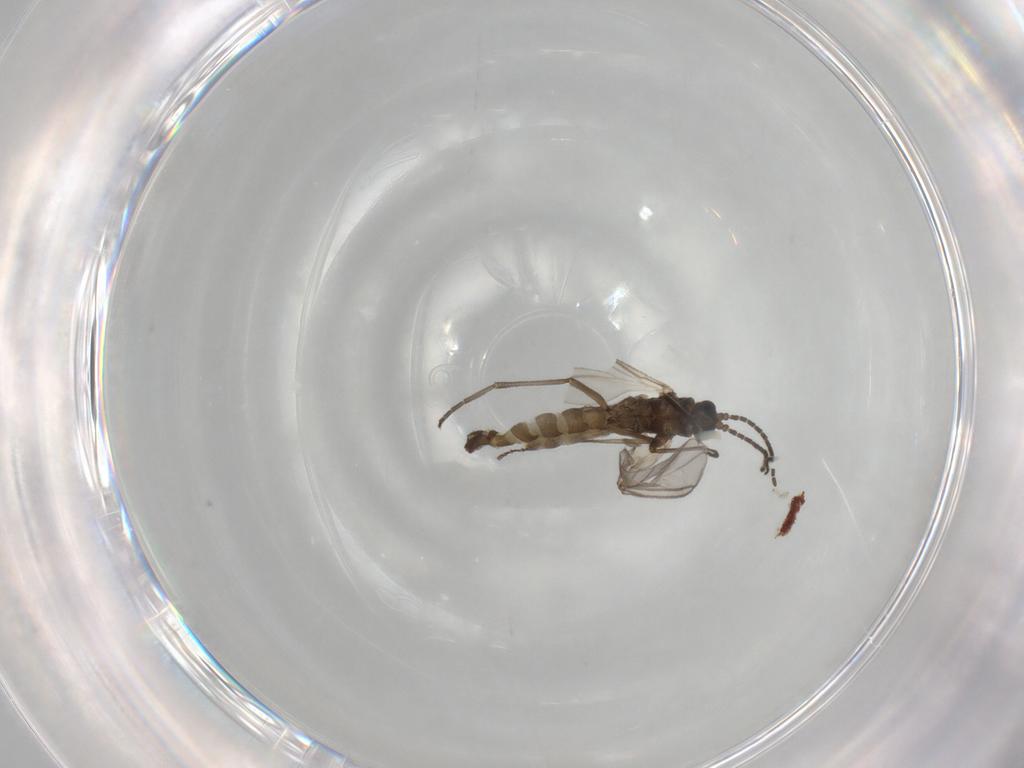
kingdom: Animalia
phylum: Arthropoda
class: Insecta
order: Diptera
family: Sciaridae
